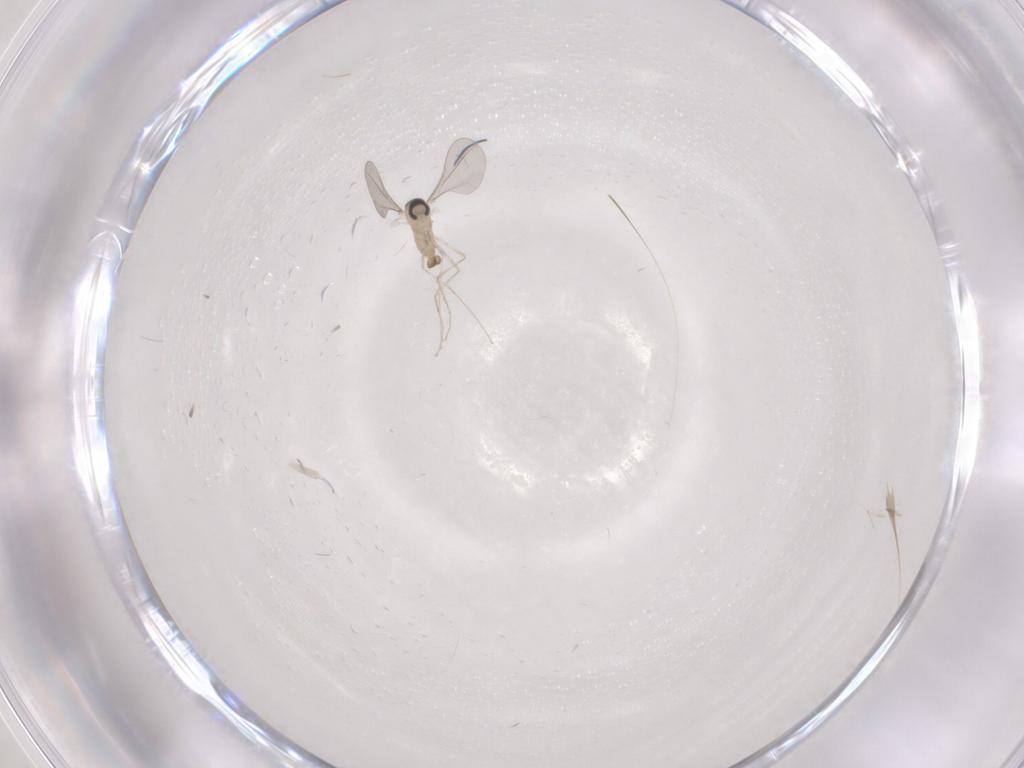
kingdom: Animalia
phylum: Arthropoda
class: Insecta
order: Diptera
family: Cecidomyiidae
